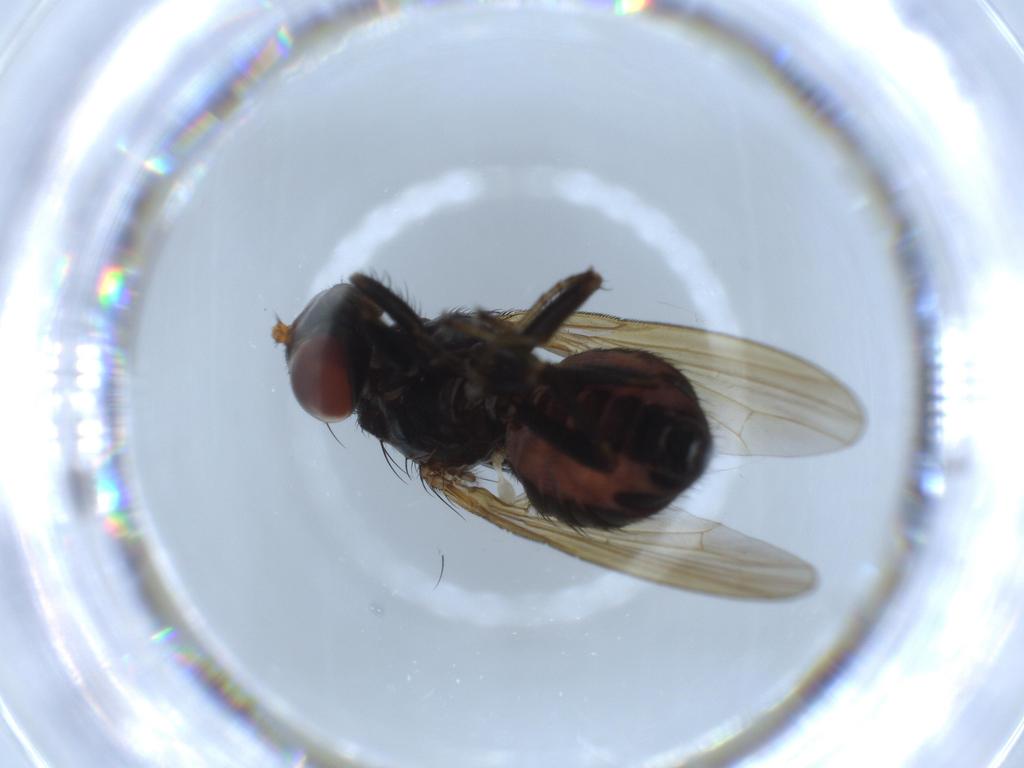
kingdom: Animalia
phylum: Arthropoda
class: Insecta
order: Diptera
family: Lauxaniidae
